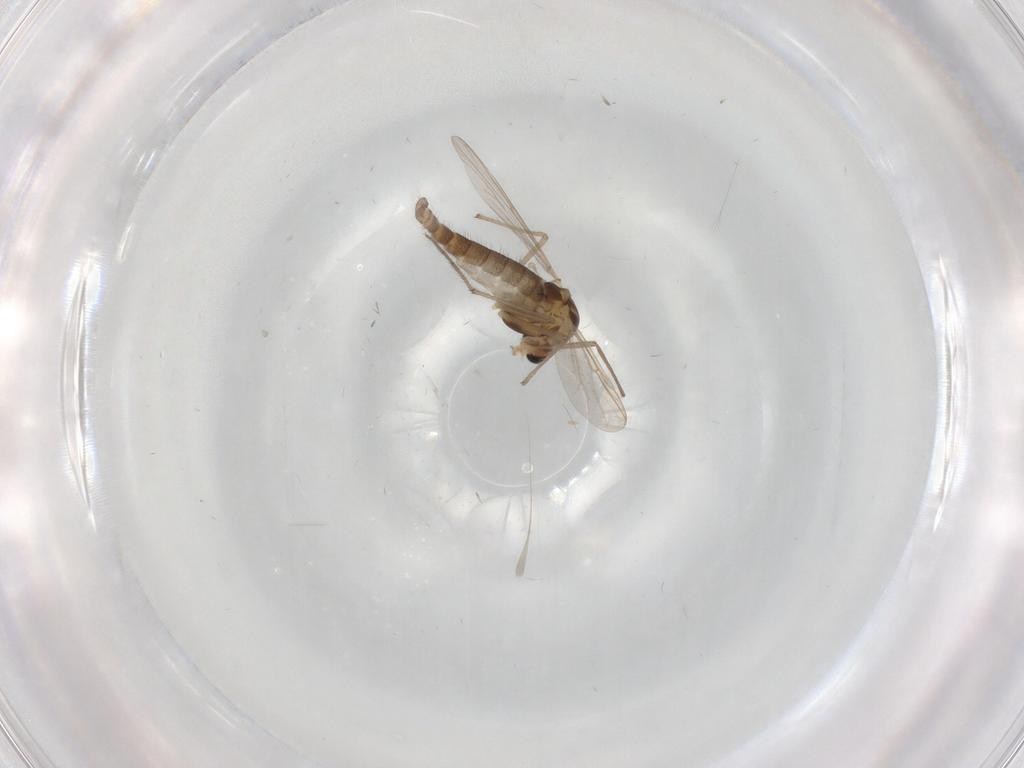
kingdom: Animalia
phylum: Arthropoda
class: Insecta
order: Diptera
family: Chironomidae
